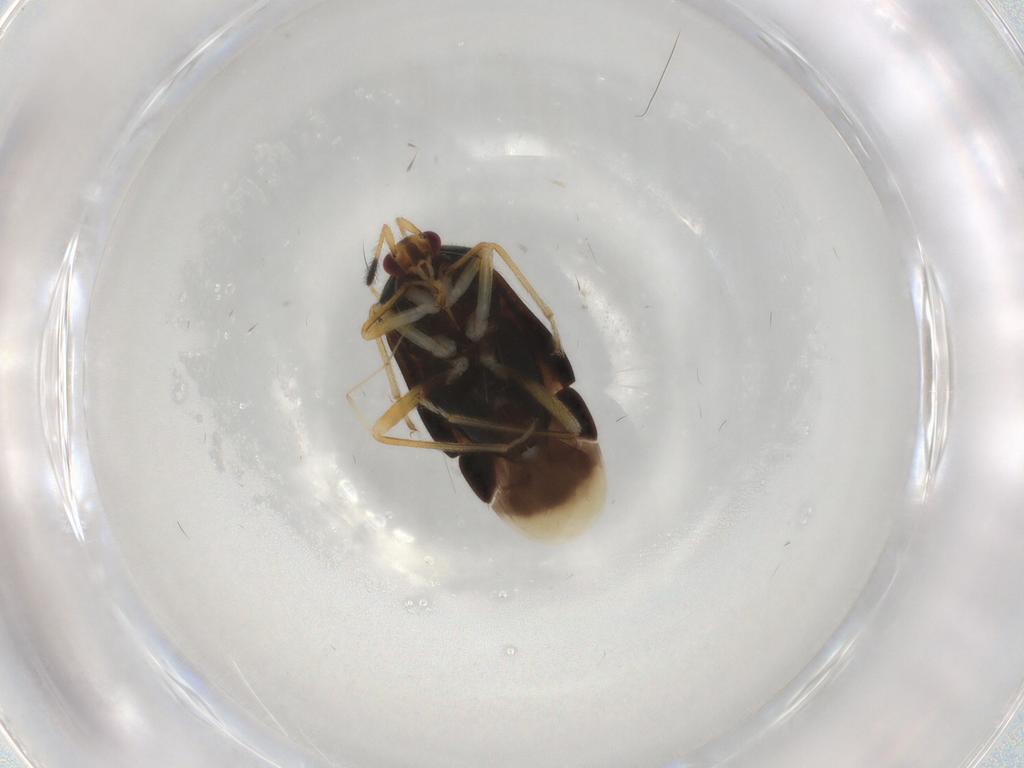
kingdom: Animalia
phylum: Arthropoda
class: Insecta
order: Hemiptera
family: Miridae
